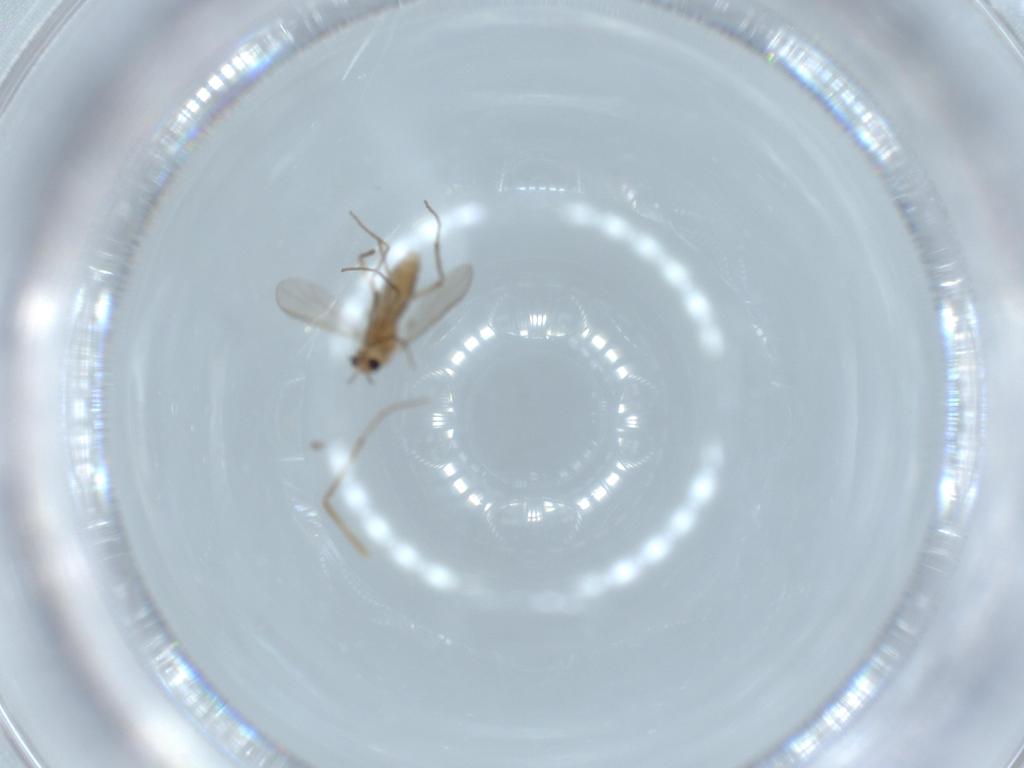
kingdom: Animalia
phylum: Arthropoda
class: Insecta
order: Diptera
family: Chironomidae
